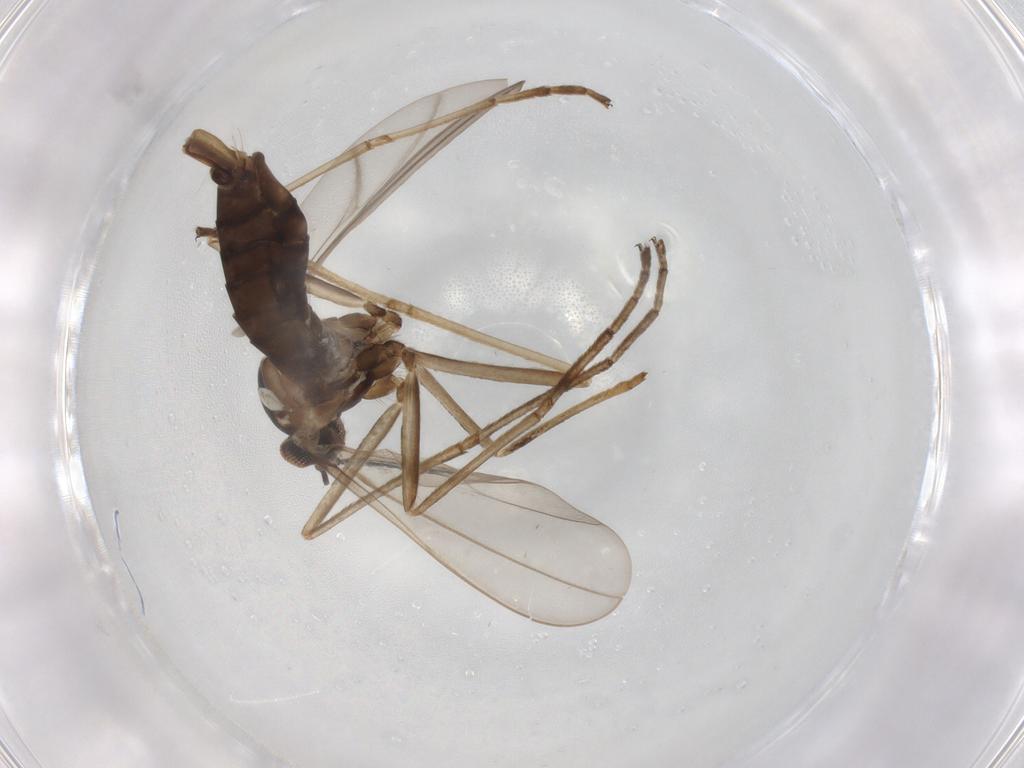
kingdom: Animalia
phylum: Arthropoda
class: Insecta
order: Diptera
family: Cecidomyiidae
